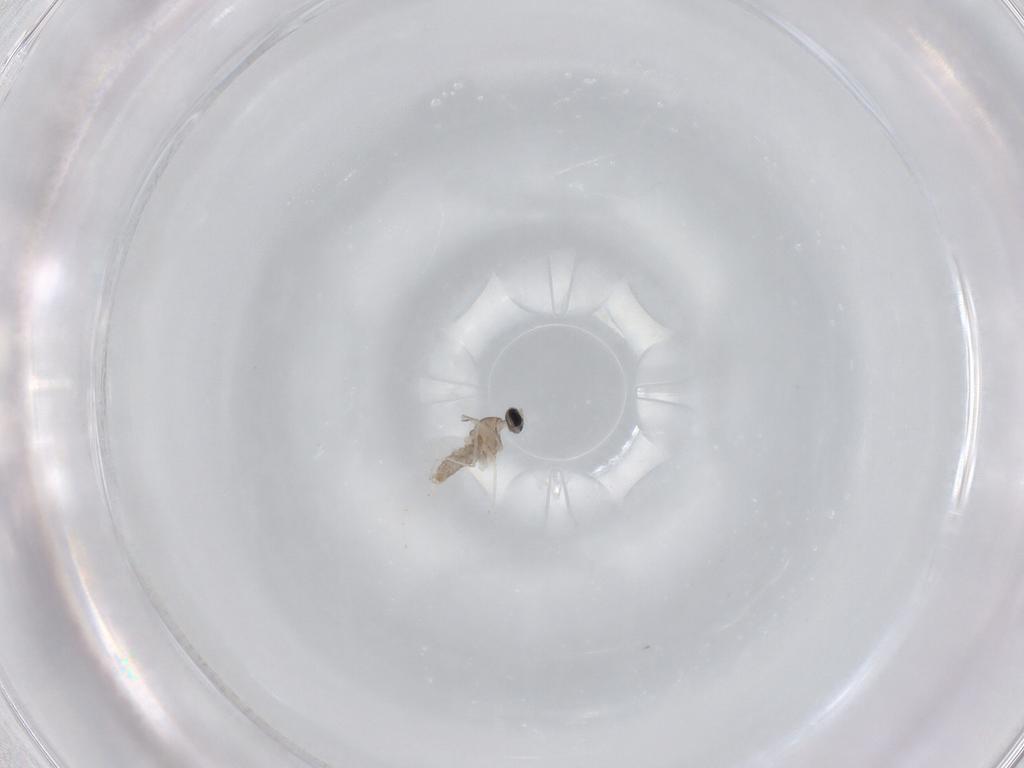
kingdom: Animalia
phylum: Arthropoda
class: Insecta
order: Diptera
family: Cecidomyiidae
